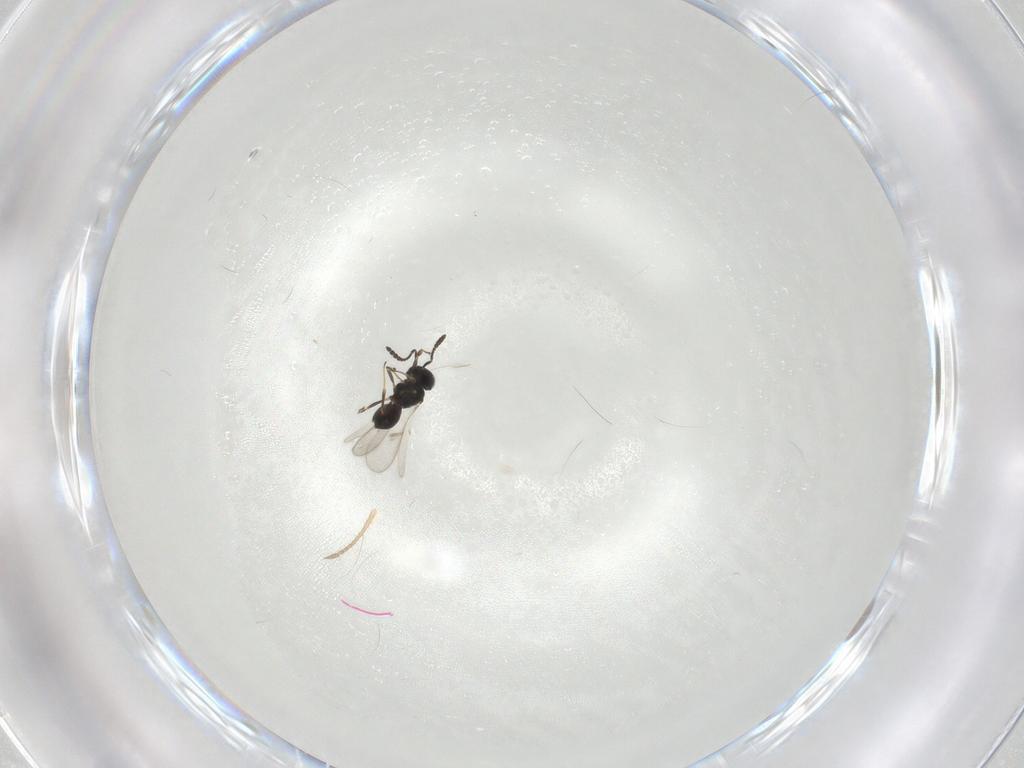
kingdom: Animalia
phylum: Arthropoda
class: Insecta
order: Hymenoptera
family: Scelionidae
